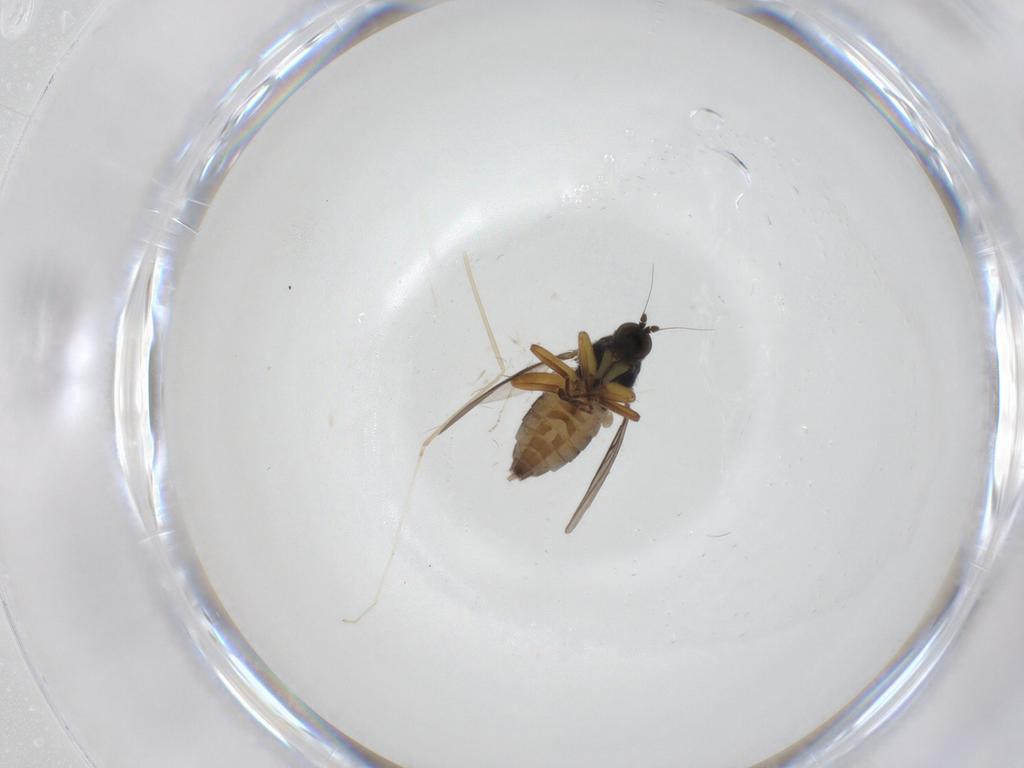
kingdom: Animalia
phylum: Arthropoda
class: Insecta
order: Diptera
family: Hybotidae
